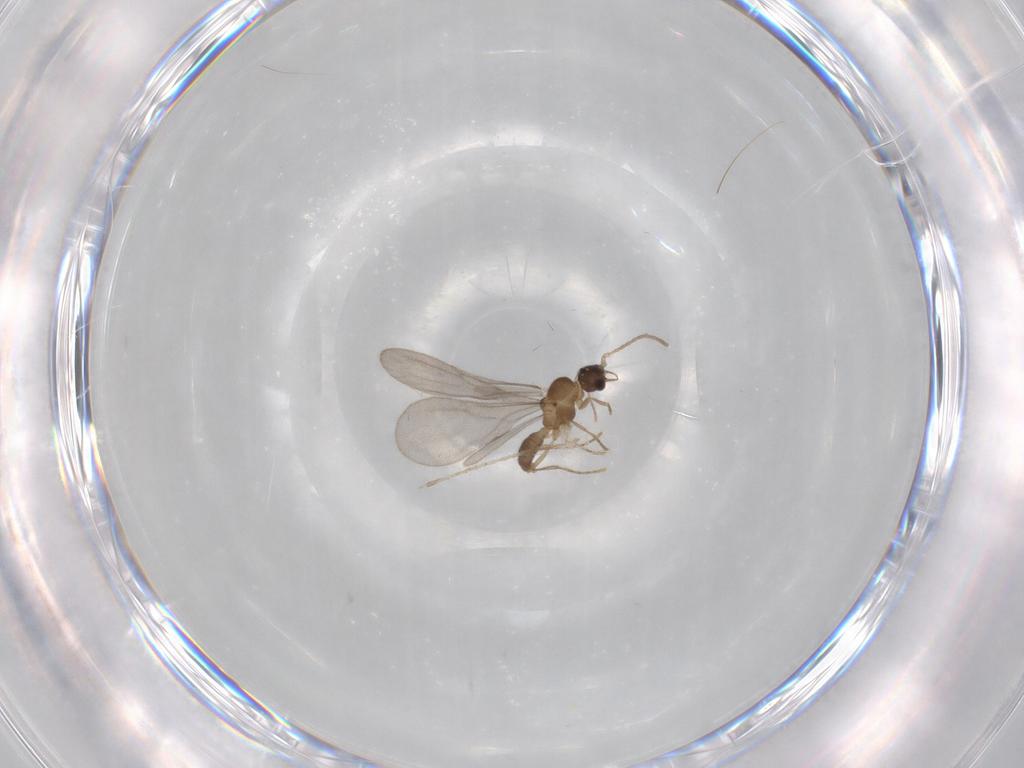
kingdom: Animalia
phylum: Arthropoda
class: Insecta
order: Hymenoptera
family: Formicidae
